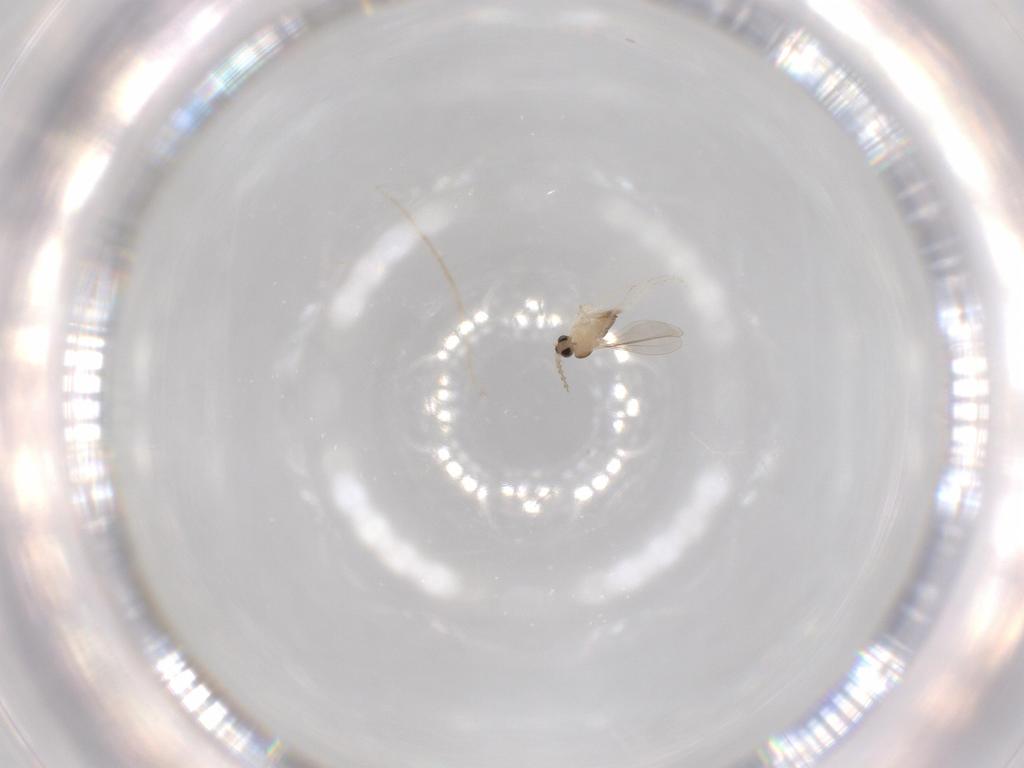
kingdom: Animalia
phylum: Arthropoda
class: Insecta
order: Diptera
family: Cecidomyiidae
